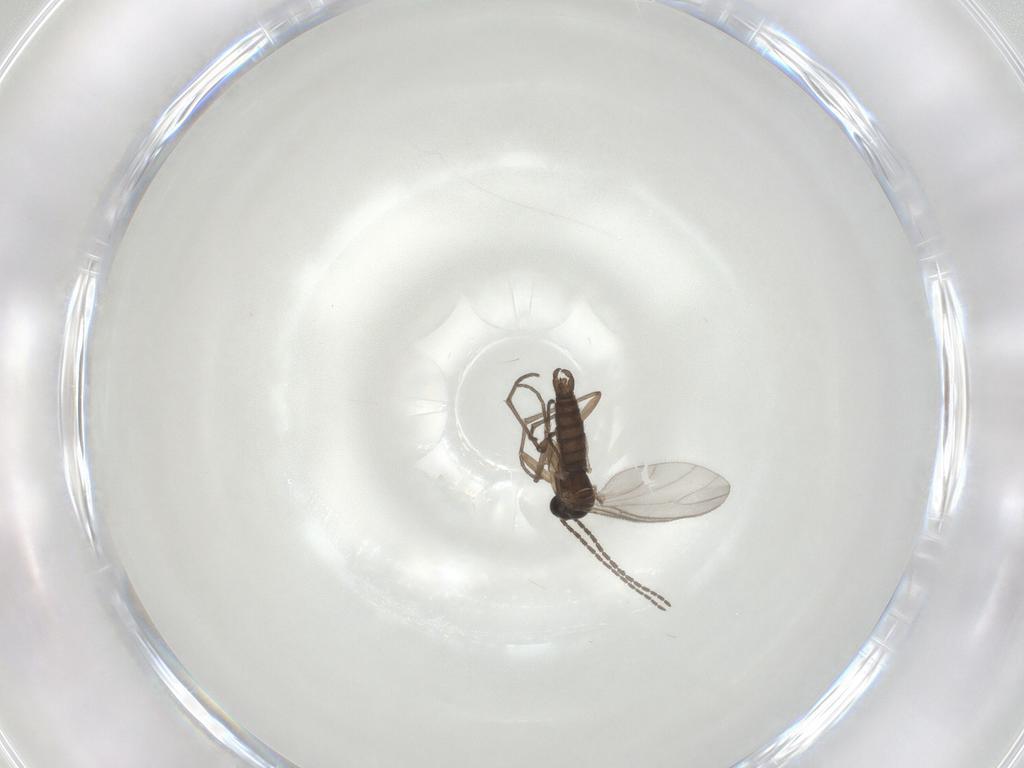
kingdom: Animalia
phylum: Arthropoda
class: Insecta
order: Diptera
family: Sciaridae
